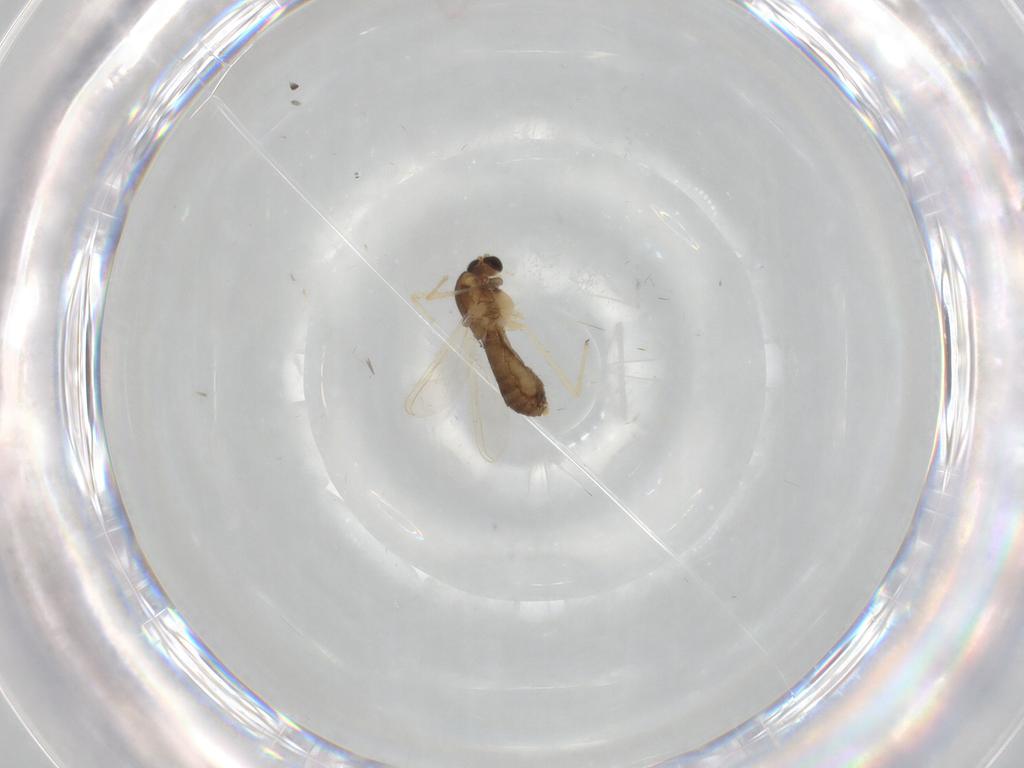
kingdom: Animalia
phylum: Arthropoda
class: Insecta
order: Diptera
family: Chironomidae
